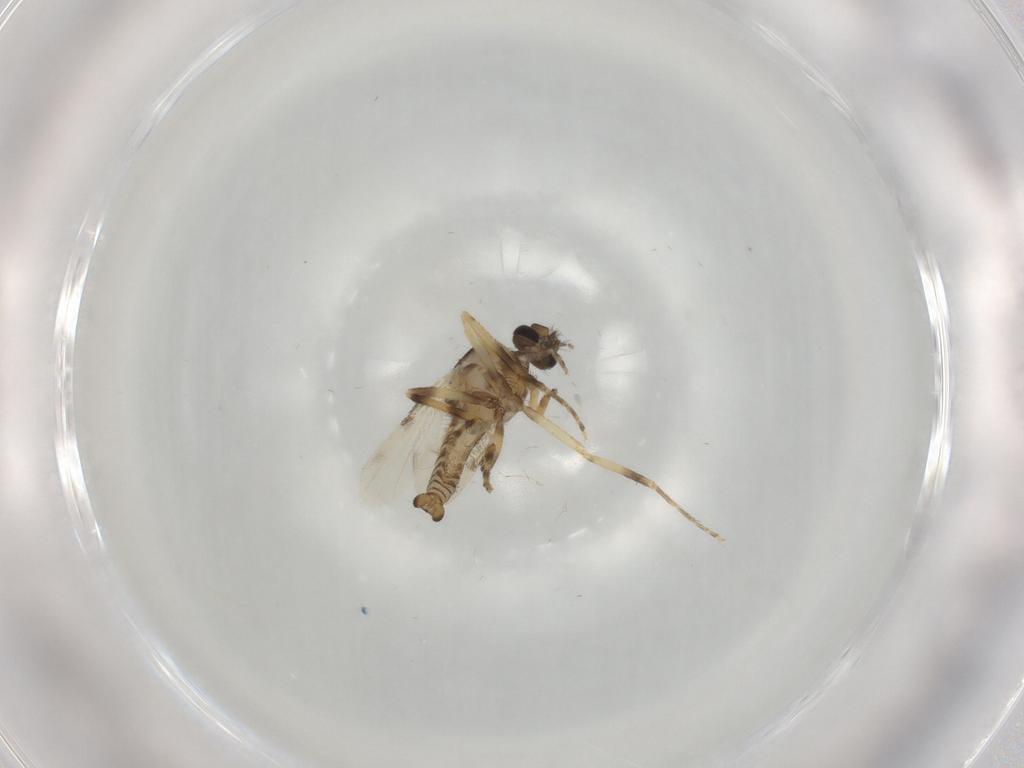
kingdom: Animalia
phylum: Arthropoda
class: Insecta
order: Diptera
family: Ceratopogonidae
